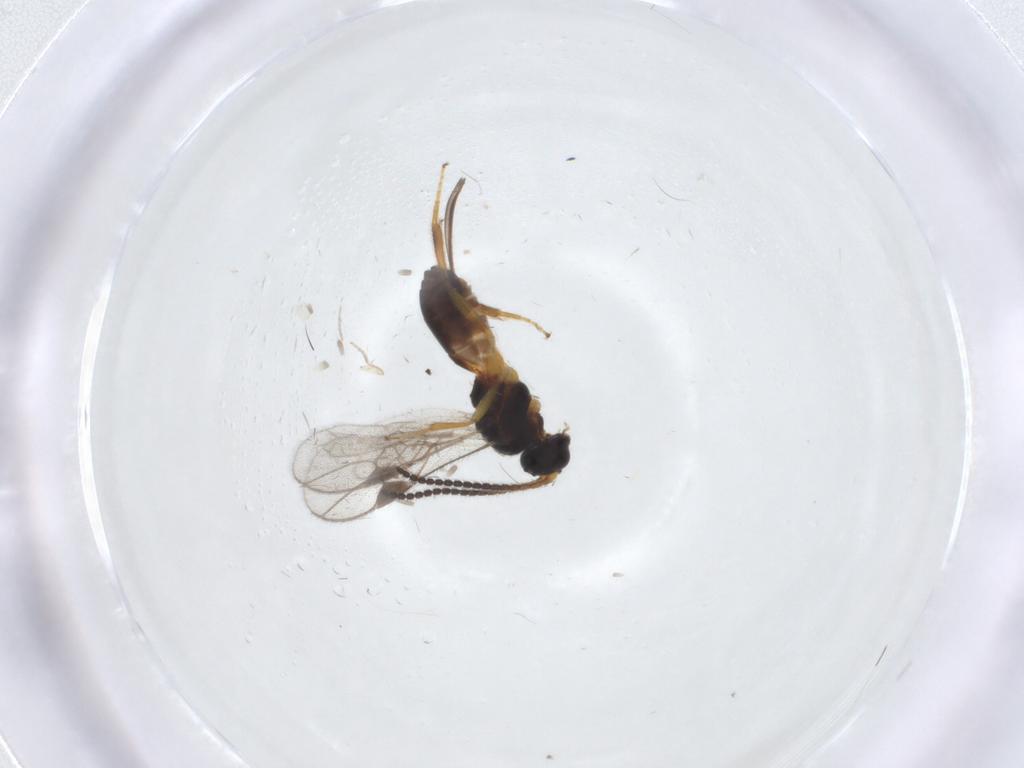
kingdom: Animalia
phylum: Arthropoda
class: Insecta
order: Hymenoptera
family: Braconidae
